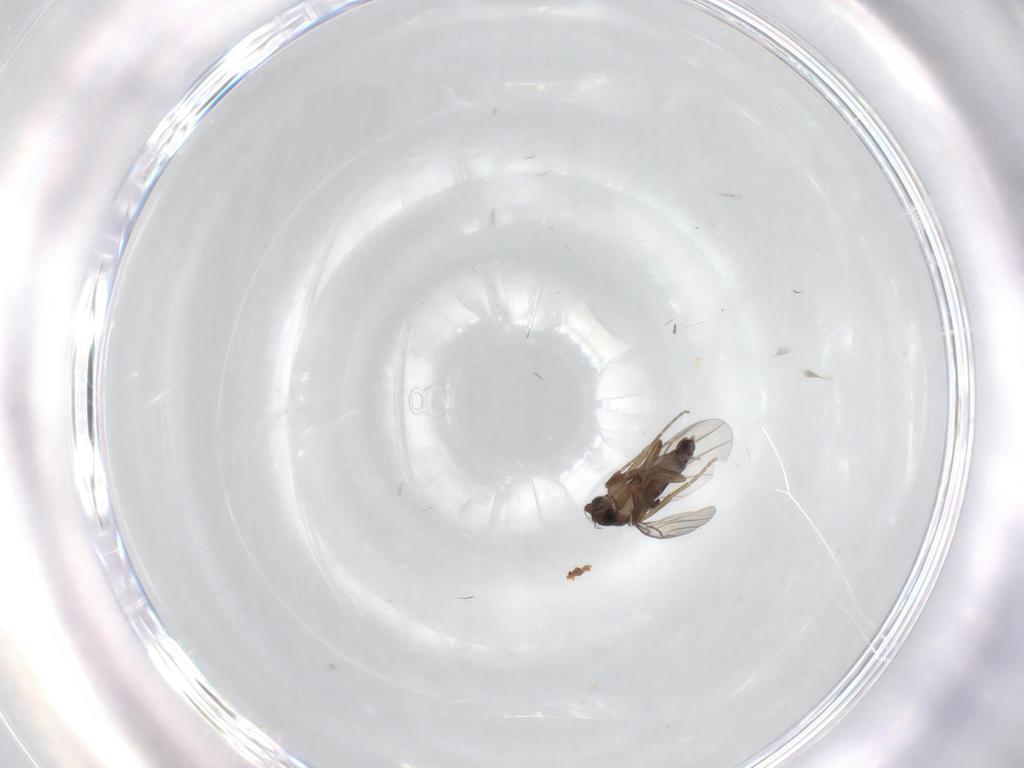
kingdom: Animalia
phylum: Arthropoda
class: Insecta
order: Diptera
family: Phoridae
